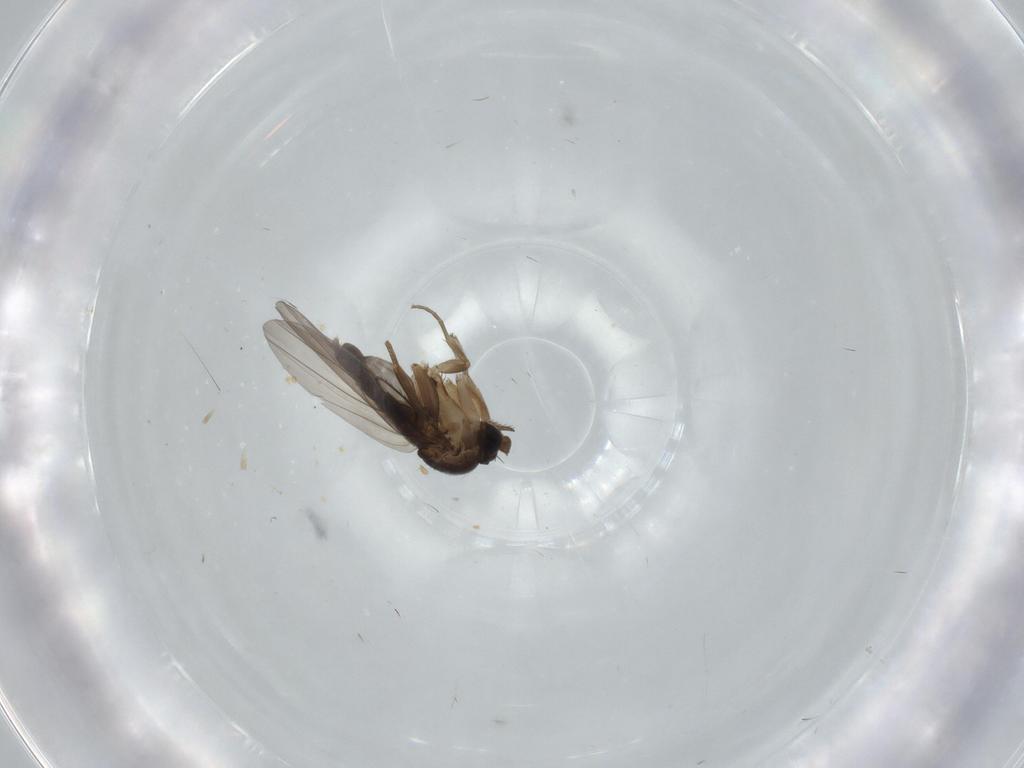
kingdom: Animalia
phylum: Arthropoda
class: Insecta
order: Diptera
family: Phoridae
